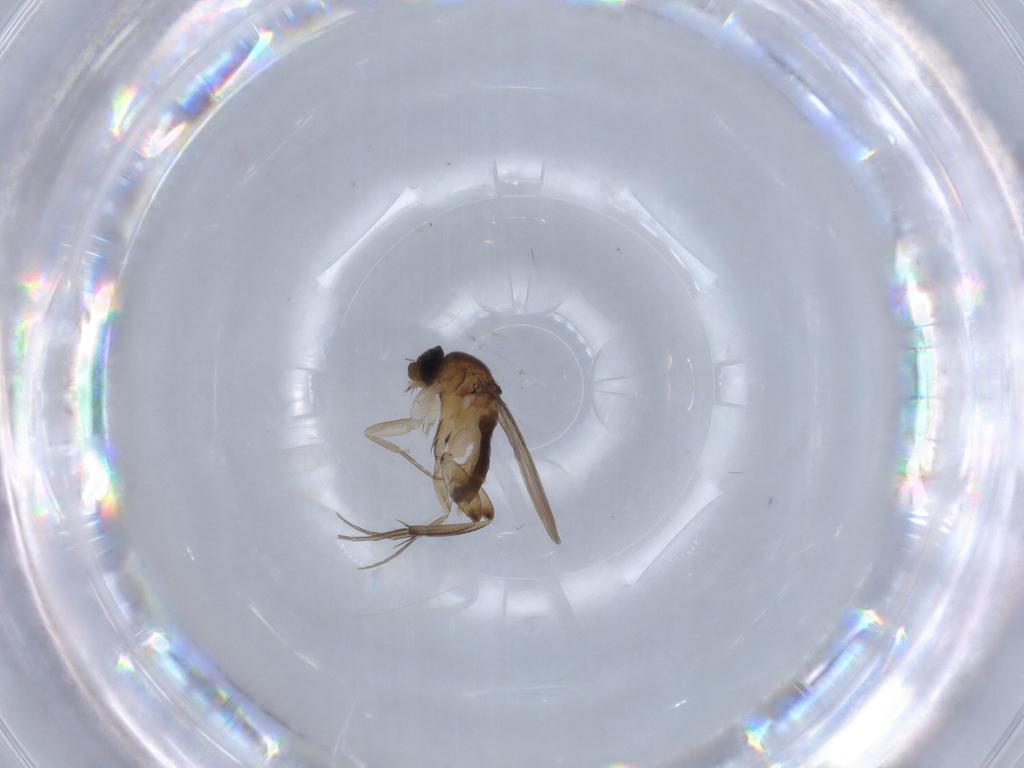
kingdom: Animalia
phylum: Arthropoda
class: Insecta
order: Diptera
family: Phoridae
